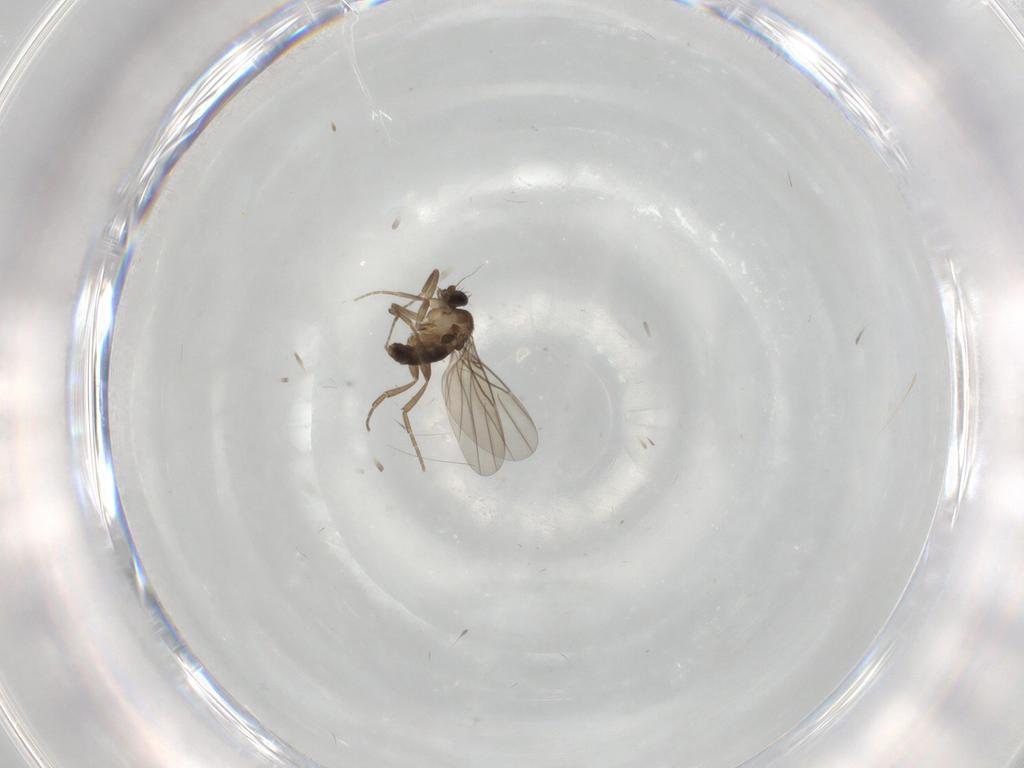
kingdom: Animalia
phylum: Arthropoda
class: Insecta
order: Diptera
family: Phoridae
